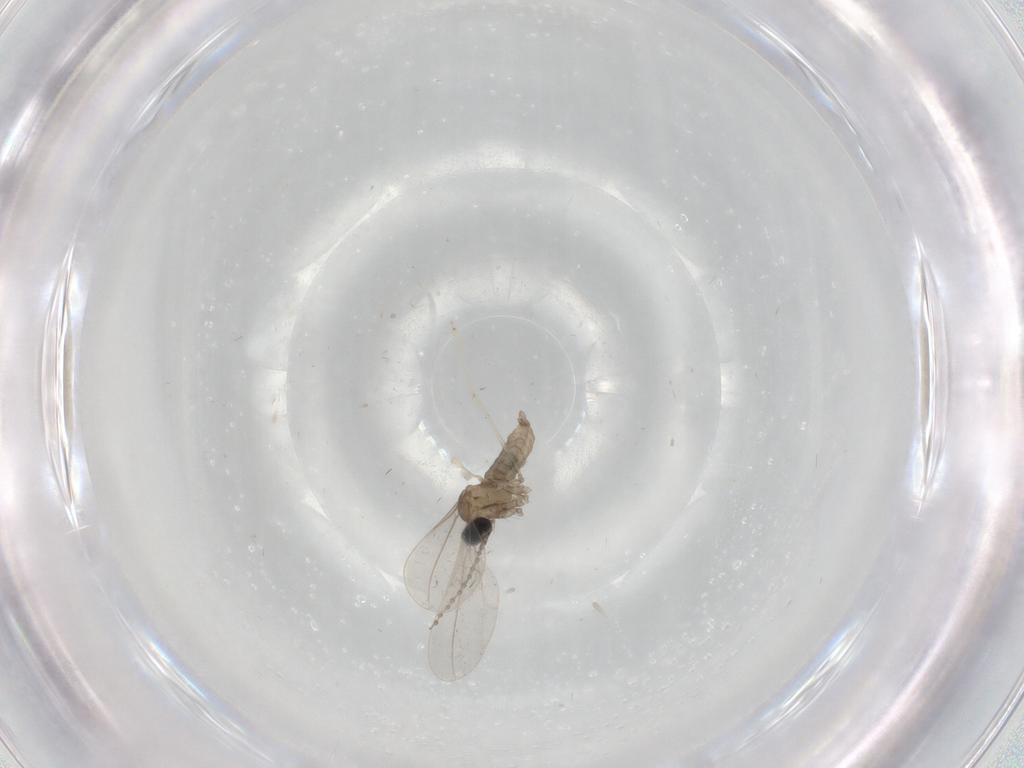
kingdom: Animalia
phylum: Arthropoda
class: Insecta
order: Diptera
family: Cecidomyiidae
